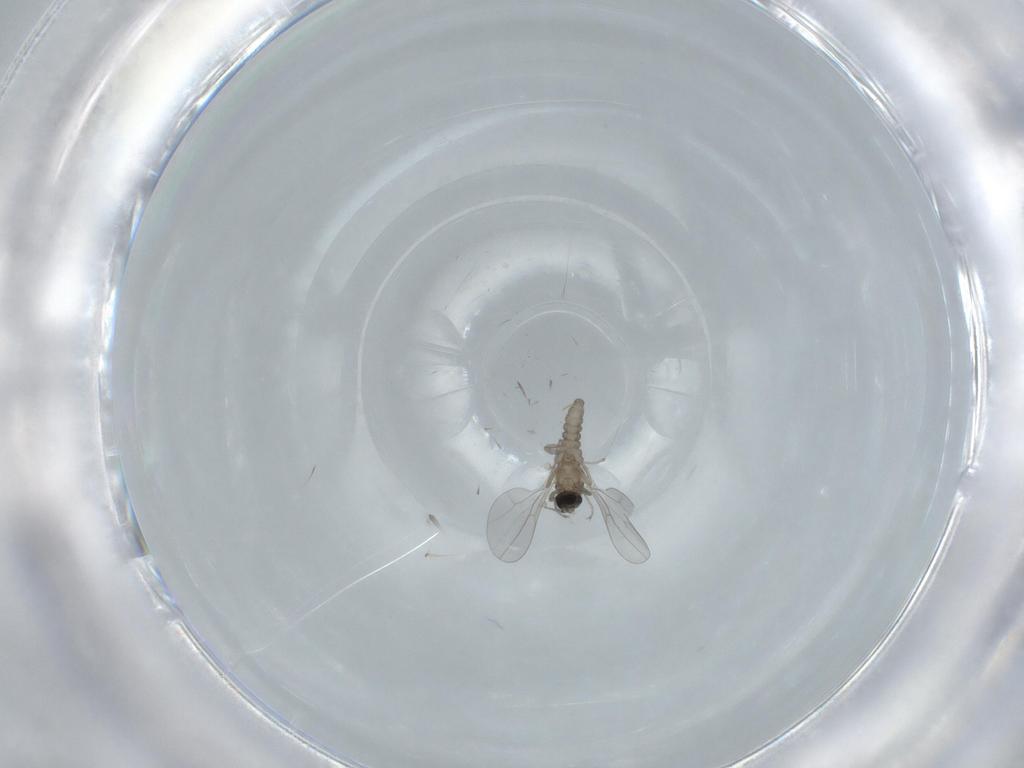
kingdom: Animalia
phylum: Arthropoda
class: Insecta
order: Diptera
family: Cecidomyiidae
